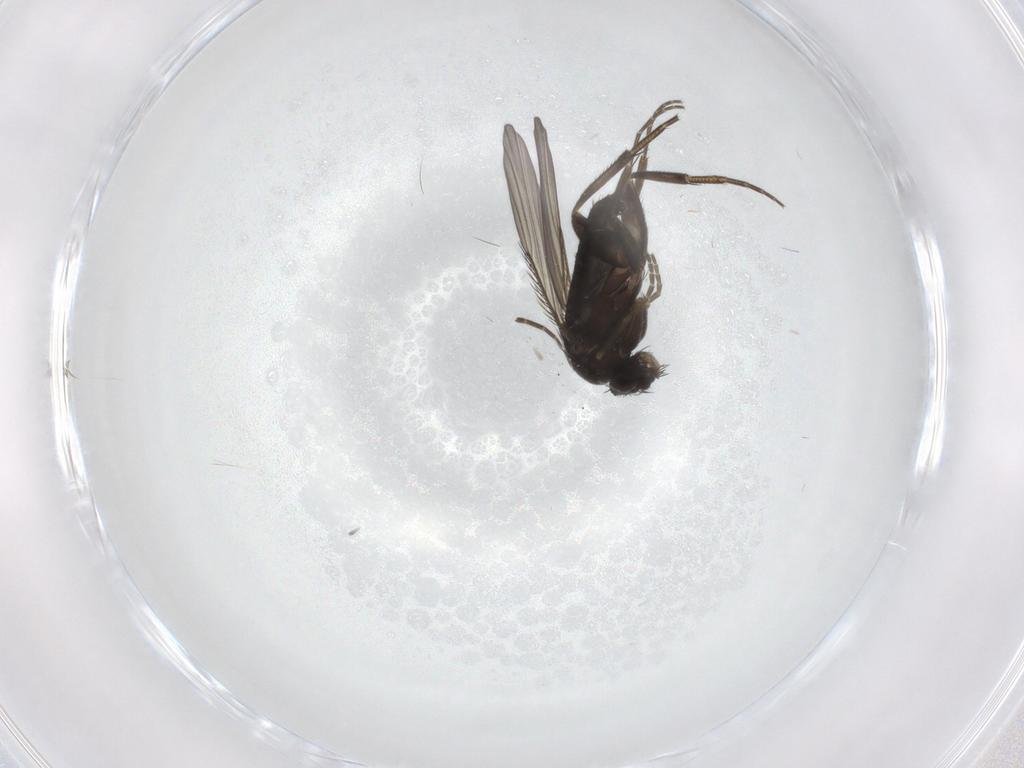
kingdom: Animalia
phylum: Arthropoda
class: Insecta
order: Diptera
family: Phoridae
